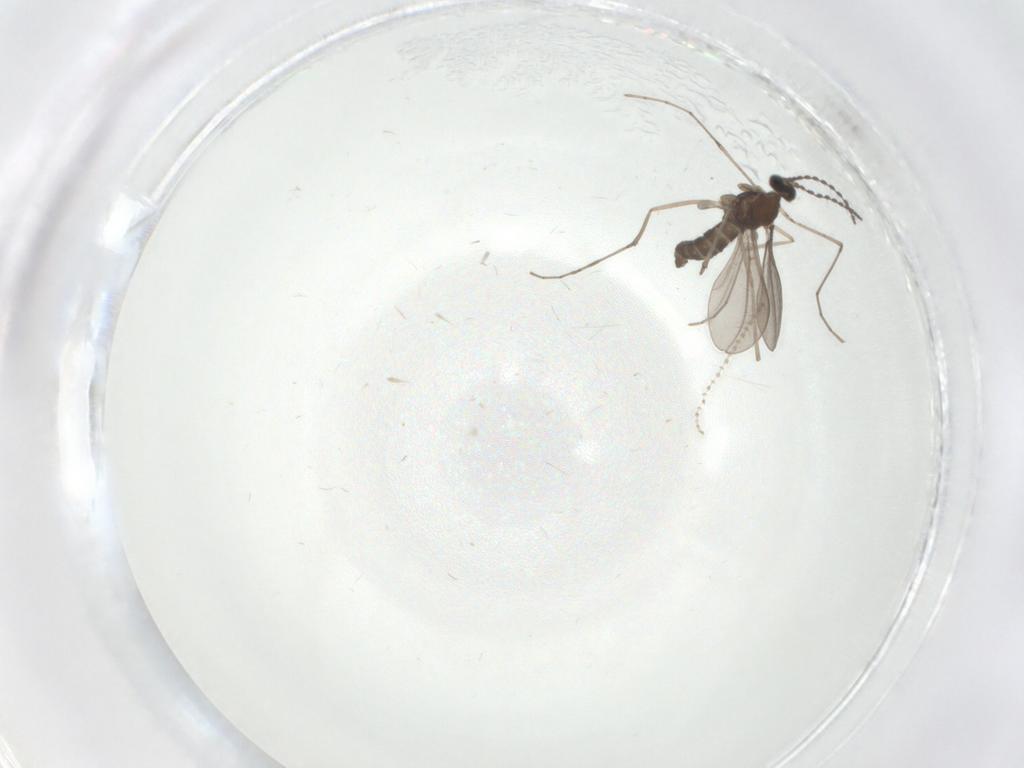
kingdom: Animalia
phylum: Arthropoda
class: Insecta
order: Diptera
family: Cecidomyiidae
